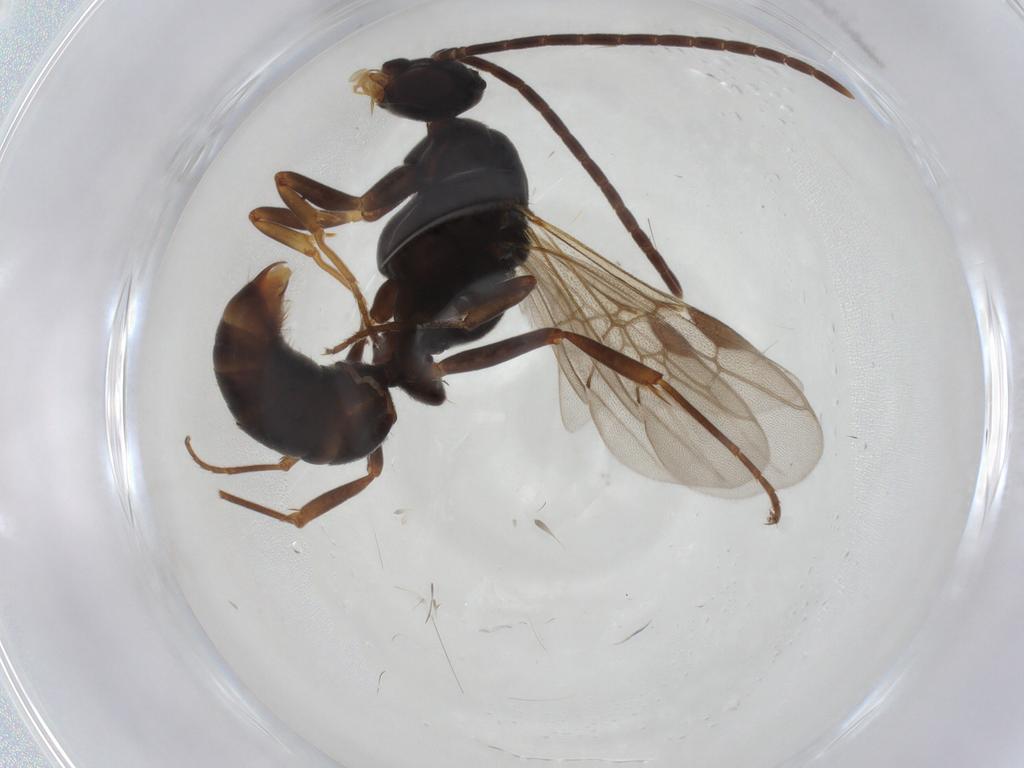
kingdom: Animalia
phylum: Arthropoda
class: Insecta
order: Hymenoptera
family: Formicidae
